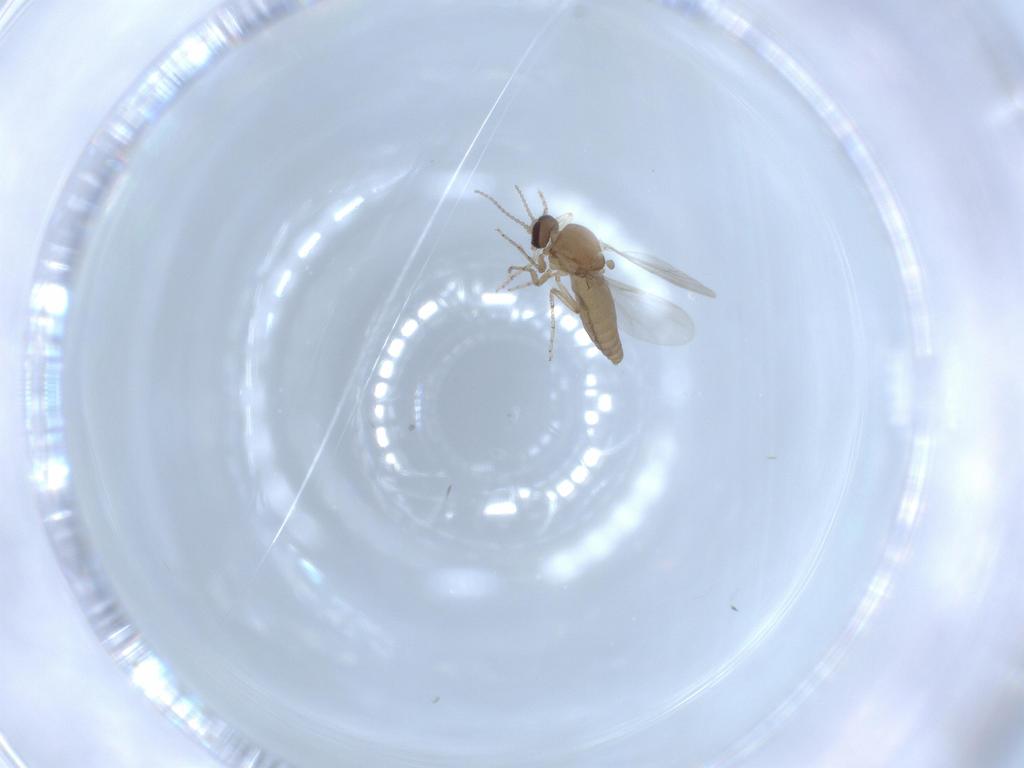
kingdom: Animalia
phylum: Arthropoda
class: Insecta
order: Diptera
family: Ceratopogonidae
